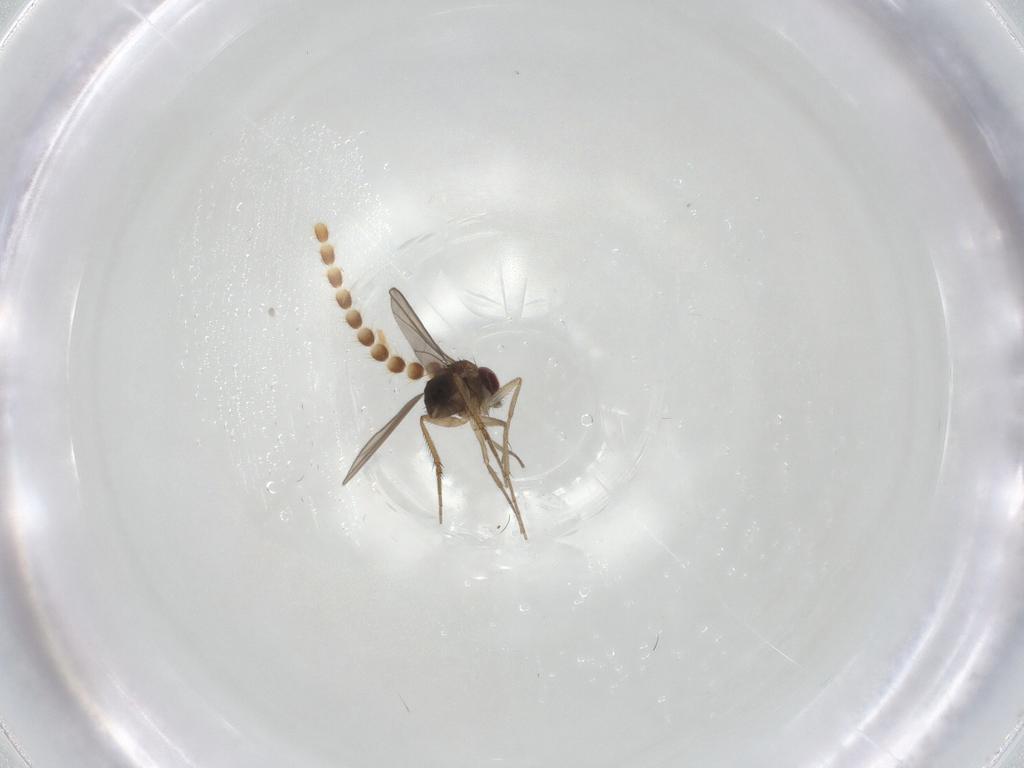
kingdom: Animalia
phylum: Arthropoda
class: Insecta
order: Diptera
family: Dolichopodidae
